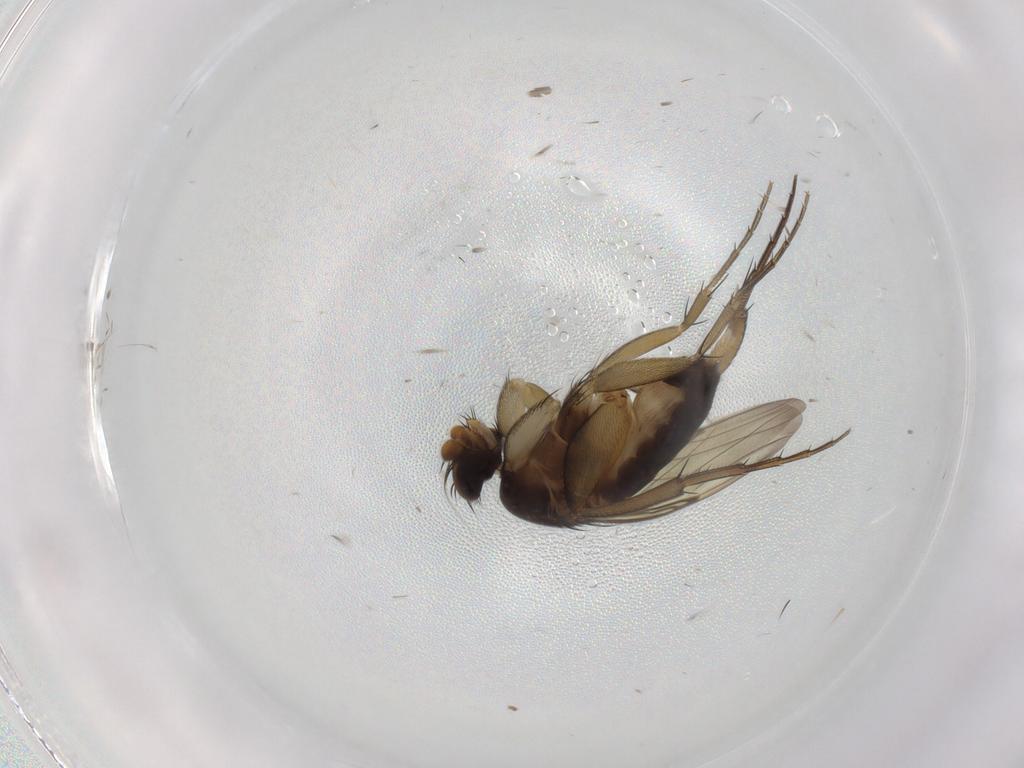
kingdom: Animalia
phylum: Arthropoda
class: Insecta
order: Diptera
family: Phoridae
